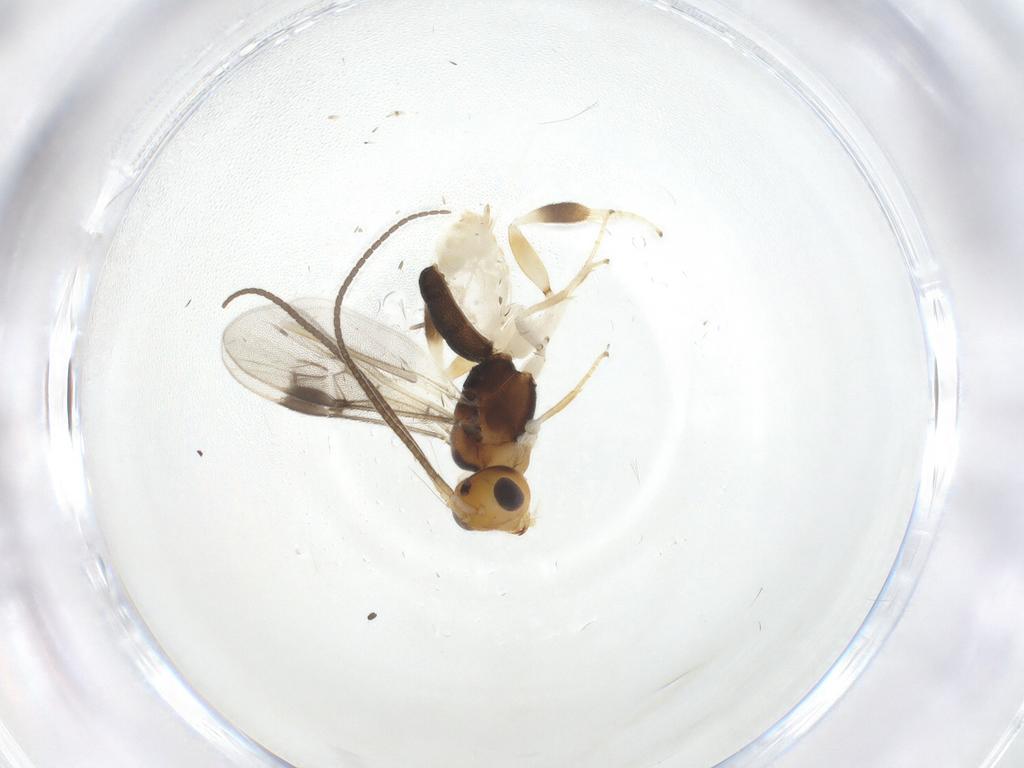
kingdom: Animalia
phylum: Arthropoda
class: Insecta
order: Hymenoptera
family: Braconidae
